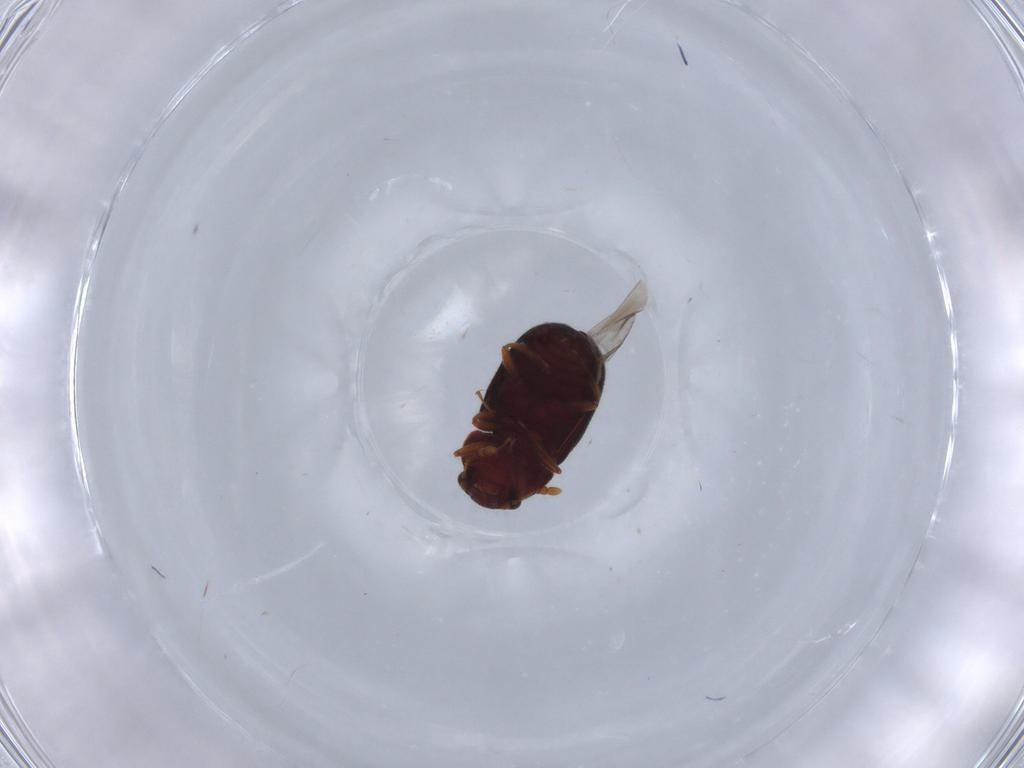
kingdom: Animalia
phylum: Arthropoda
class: Insecta
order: Coleoptera
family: Sphindidae
